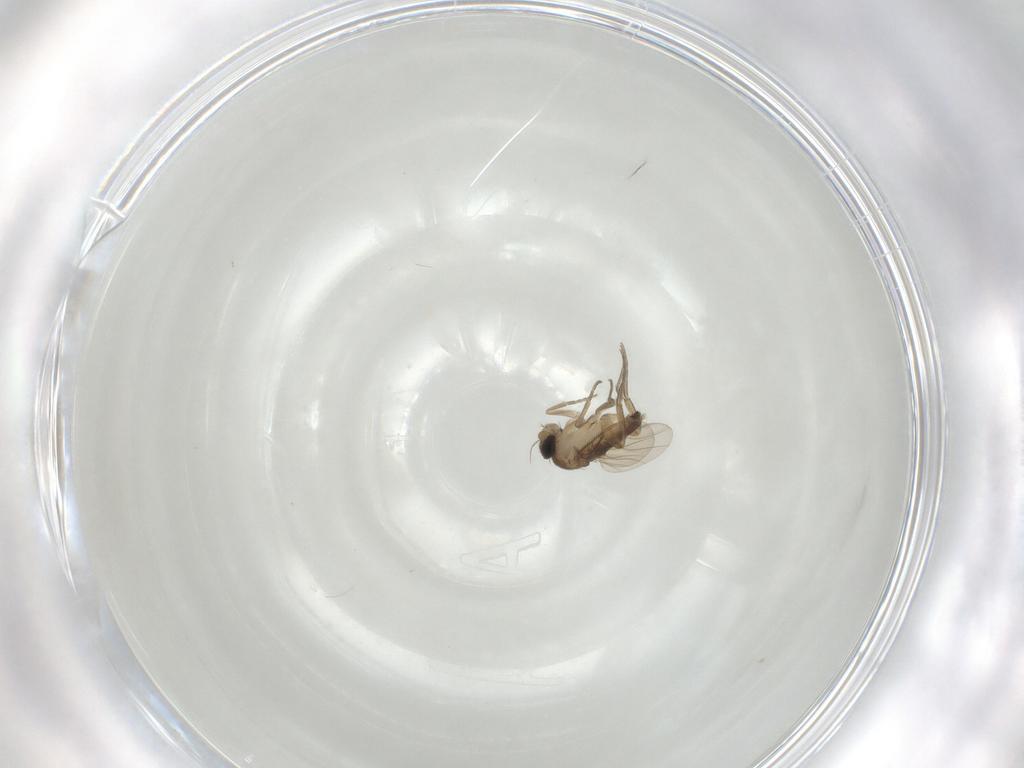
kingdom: Animalia
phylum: Arthropoda
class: Insecta
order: Diptera
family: Phoridae
